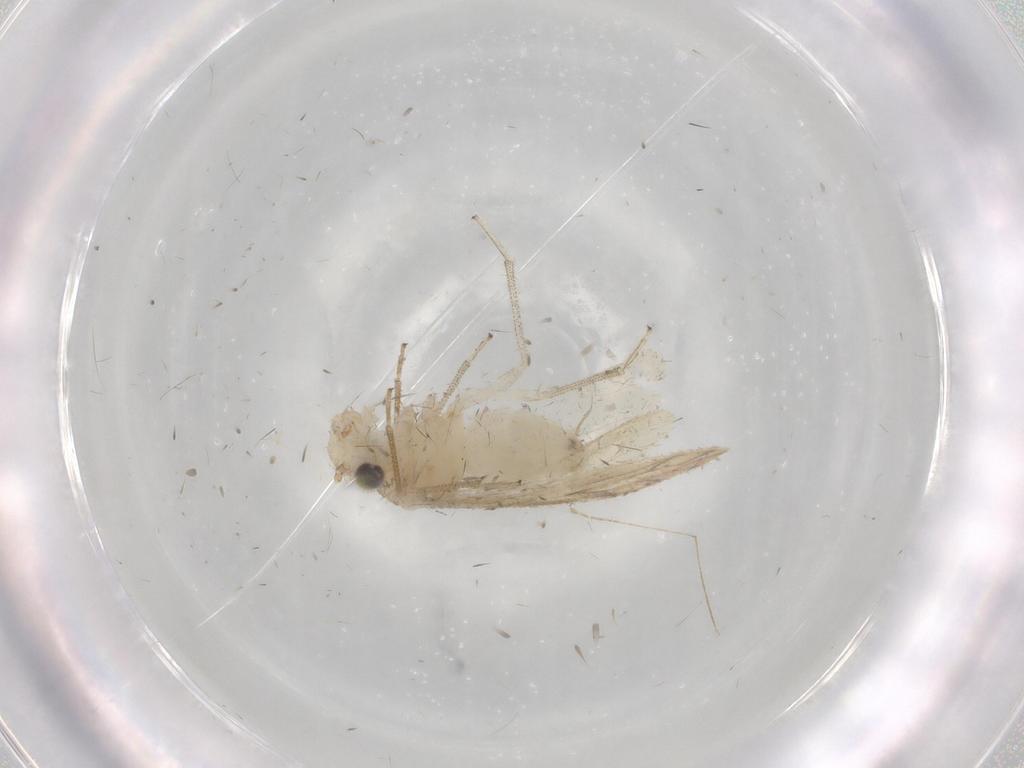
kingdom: Animalia
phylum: Arthropoda
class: Insecta
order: Psocodea
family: Caeciliusidae
